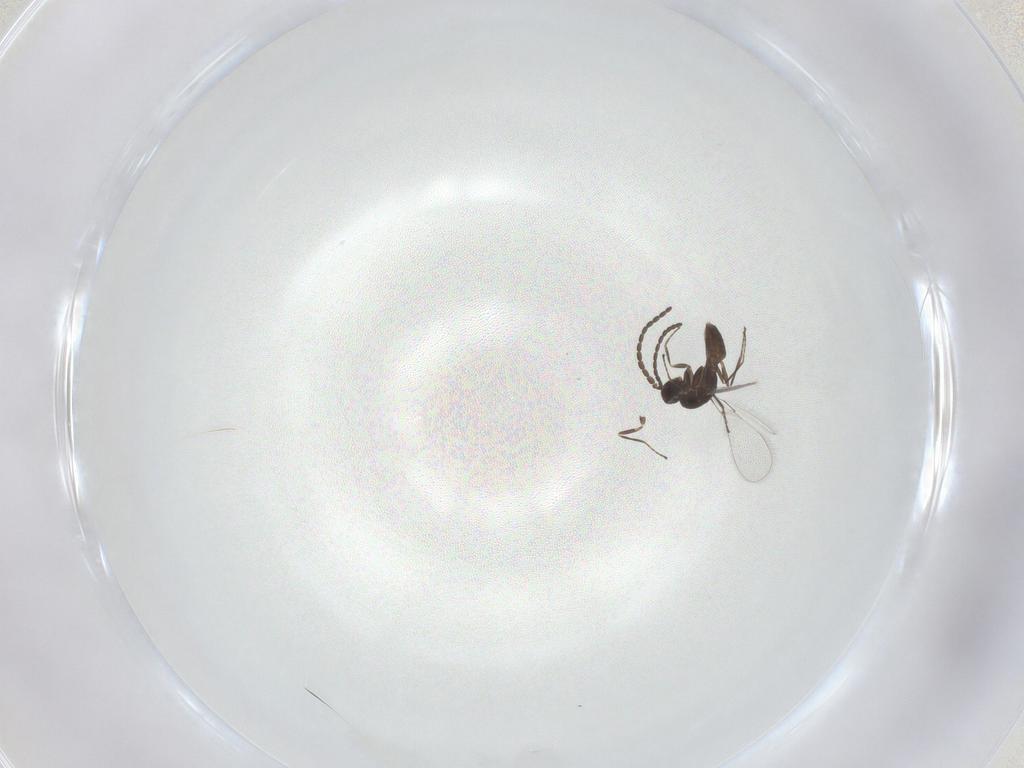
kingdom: Animalia
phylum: Arthropoda
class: Insecta
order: Hymenoptera
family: Mymaridae
